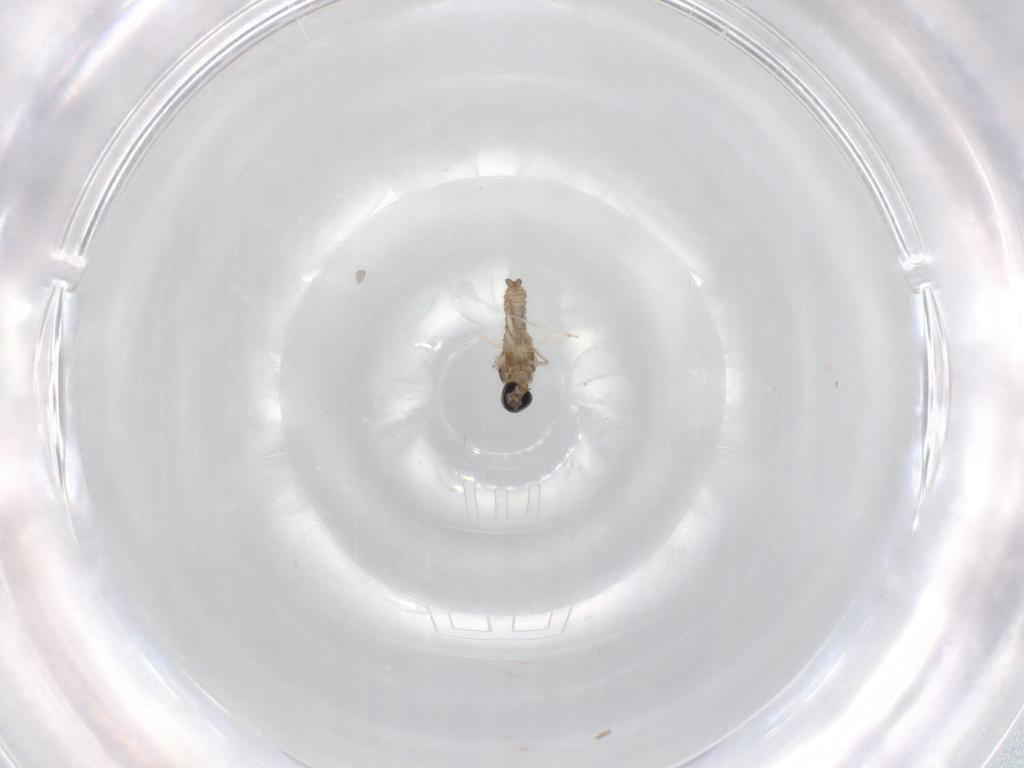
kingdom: Animalia
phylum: Arthropoda
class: Insecta
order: Diptera
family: Cecidomyiidae
